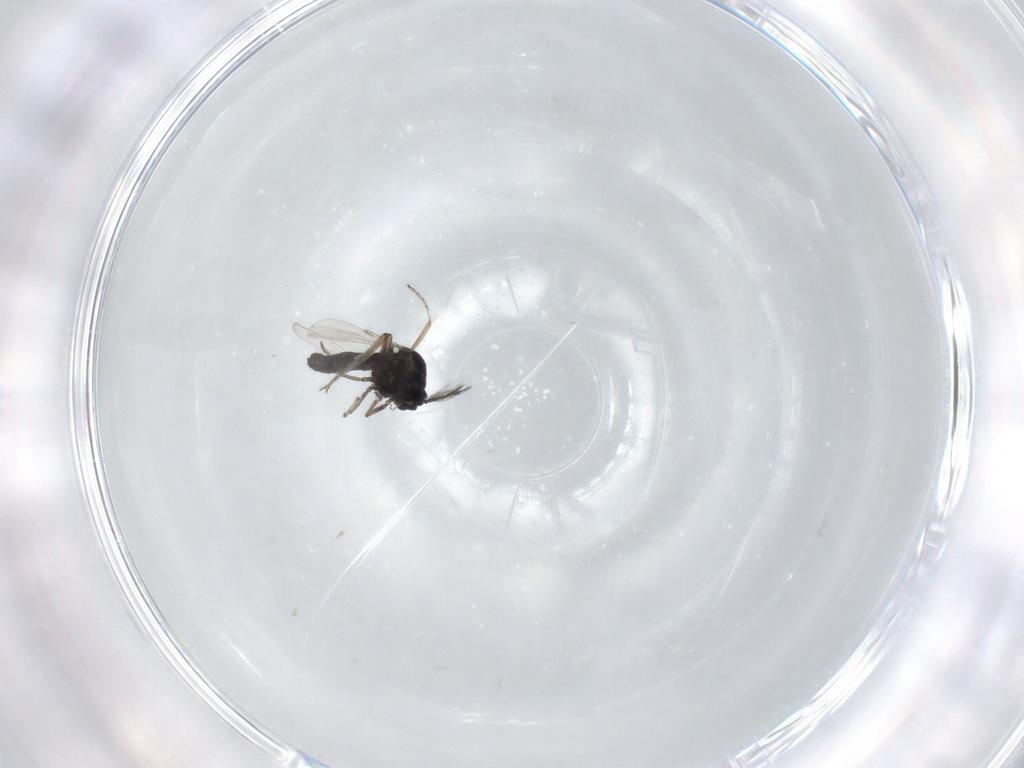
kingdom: Animalia
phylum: Arthropoda
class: Insecta
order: Diptera
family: Ceratopogonidae
